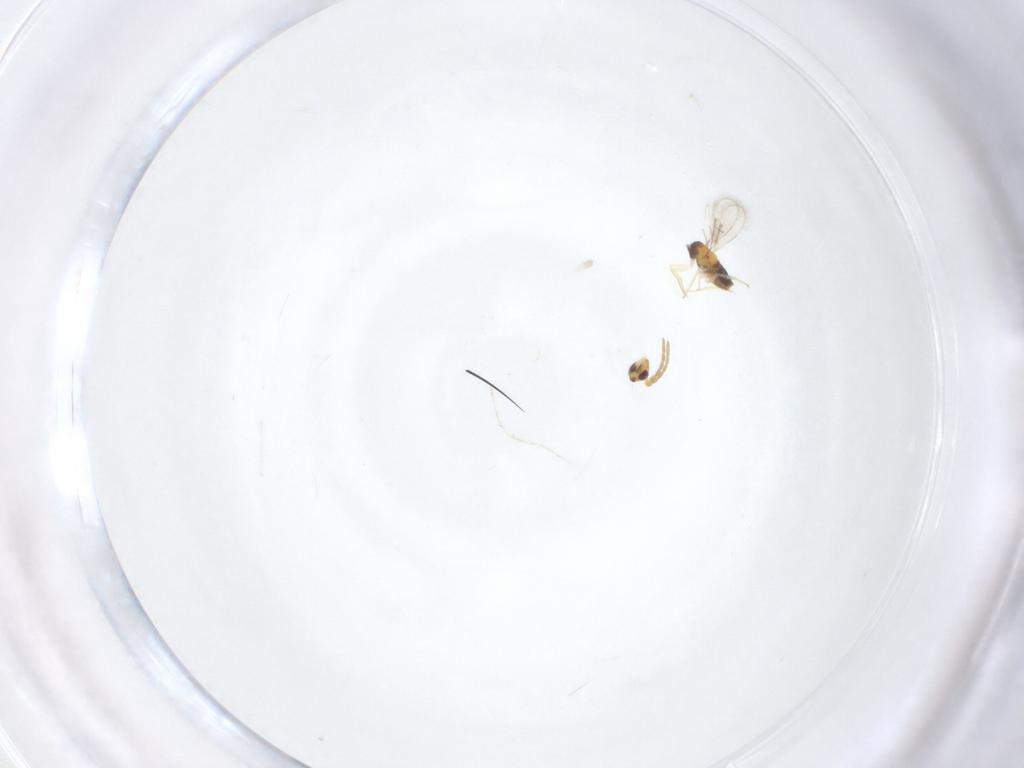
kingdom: Animalia
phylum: Arthropoda
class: Insecta
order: Hymenoptera
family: Aphelinidae
